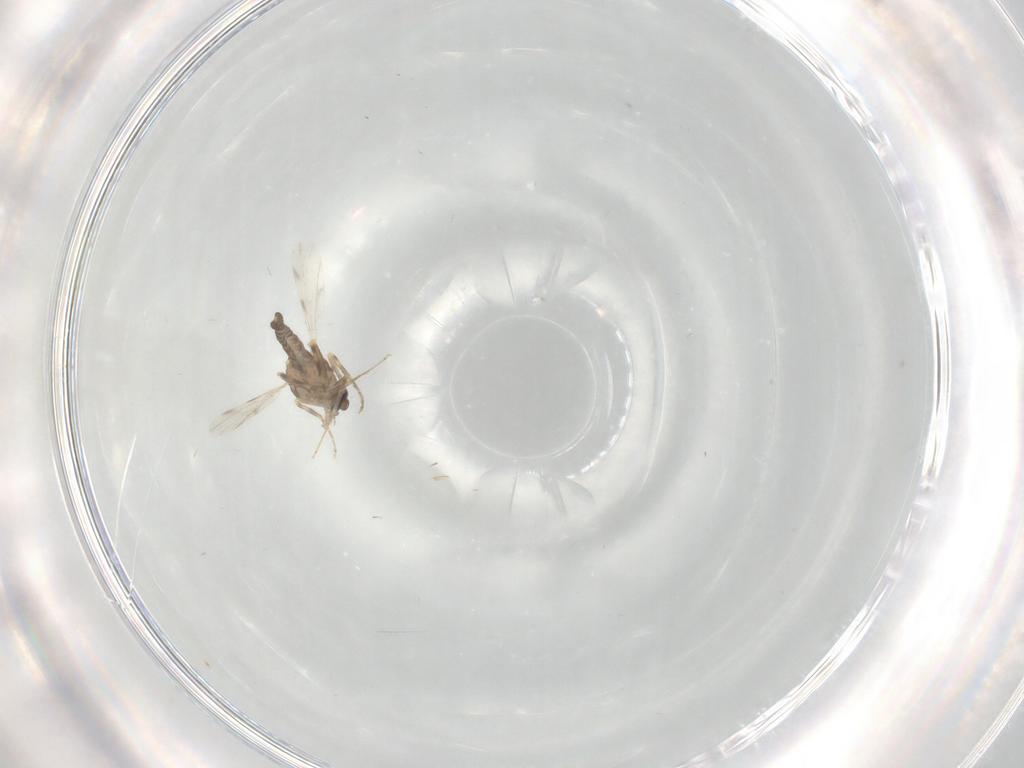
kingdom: Animalia
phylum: Arthropoda
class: Insecta
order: Diptera
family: Ceratopogonidae
